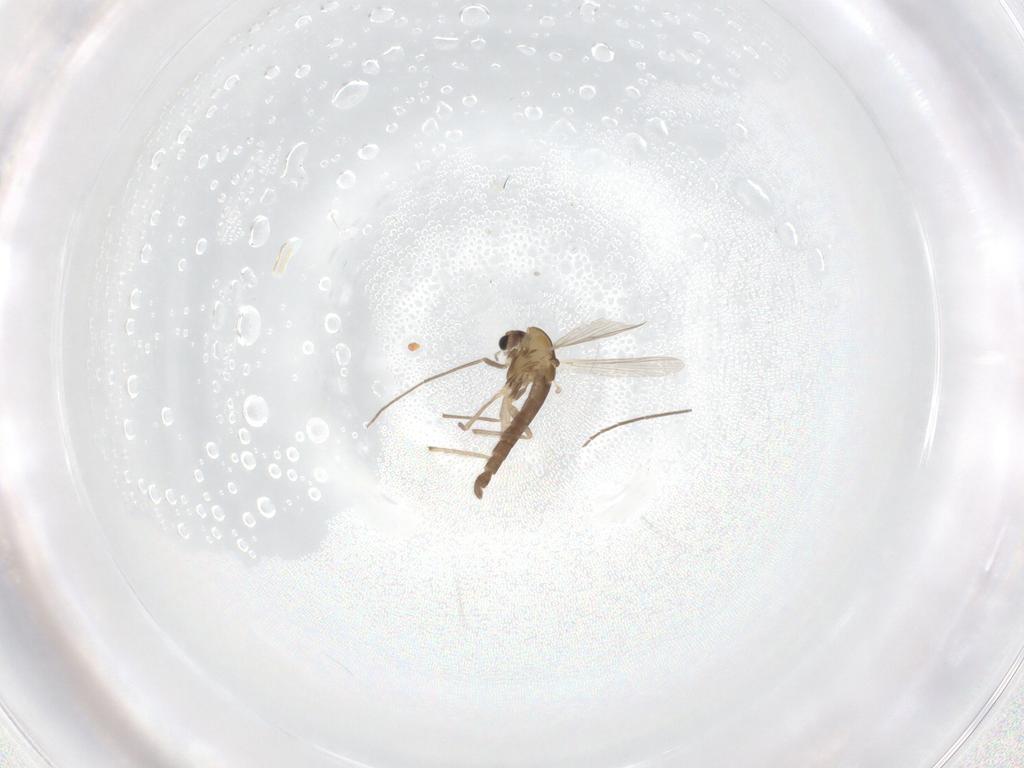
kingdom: Animalia
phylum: Arthropoda
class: Insecta
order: Diptera
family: Chironomidae
